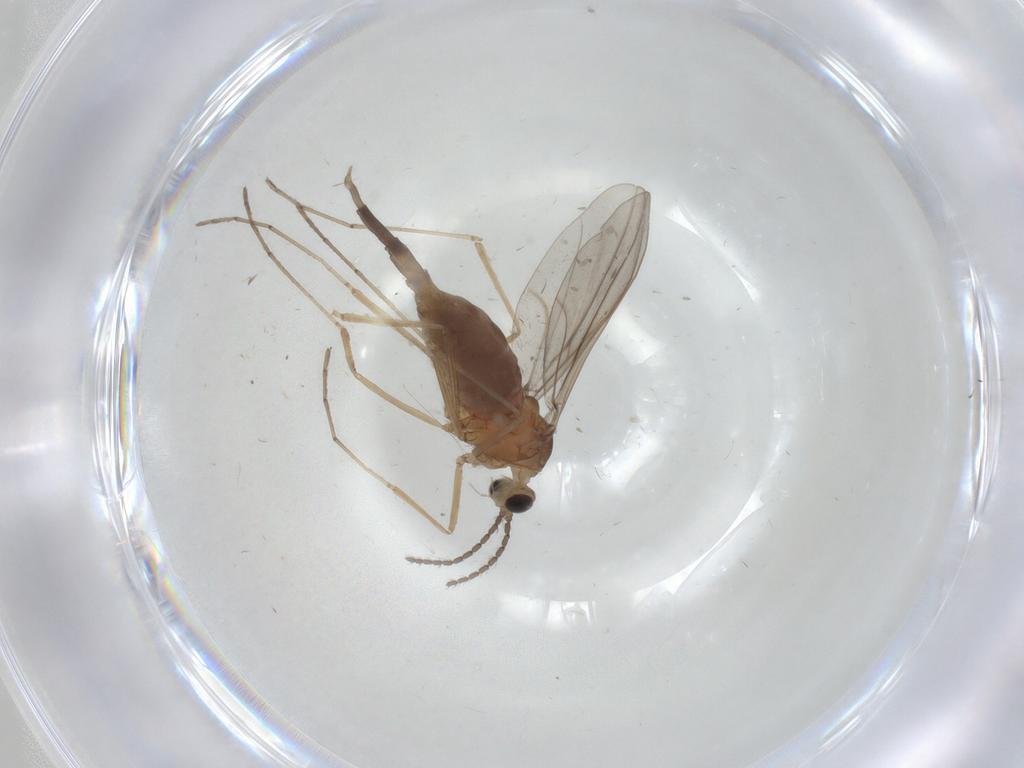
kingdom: Animalia
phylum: Arthropoda
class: Insecta
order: Diptera
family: Cecidomyiidae
